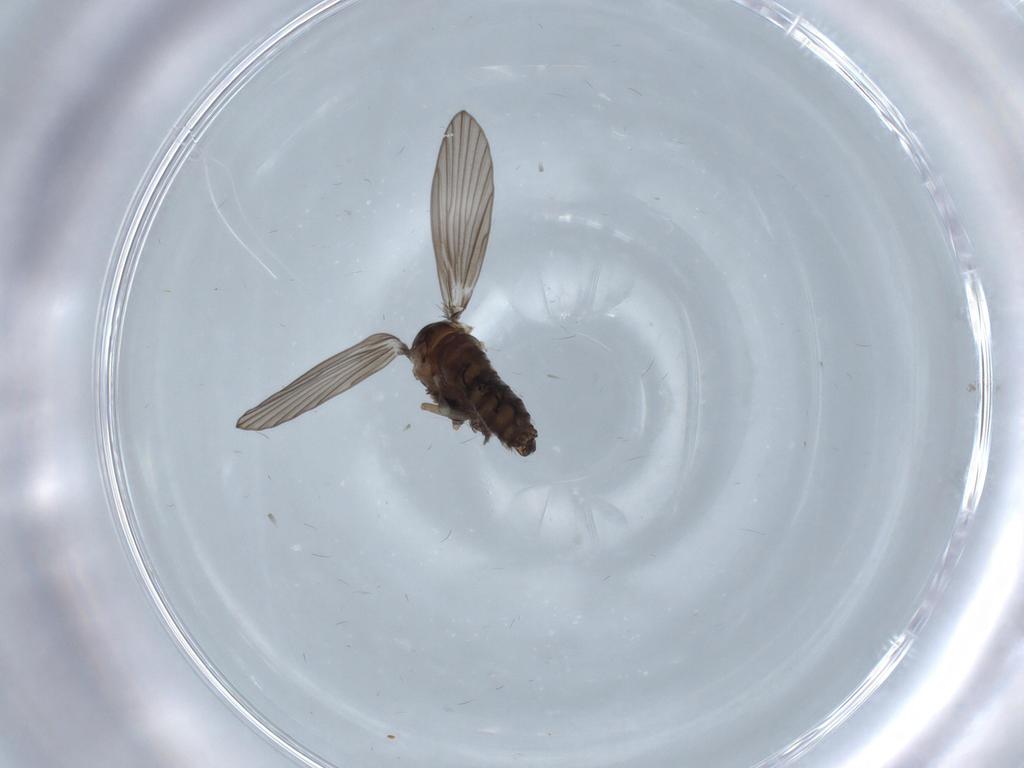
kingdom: Animalia
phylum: Arthropoda
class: Insecta
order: Diptera
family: Psychodidae
